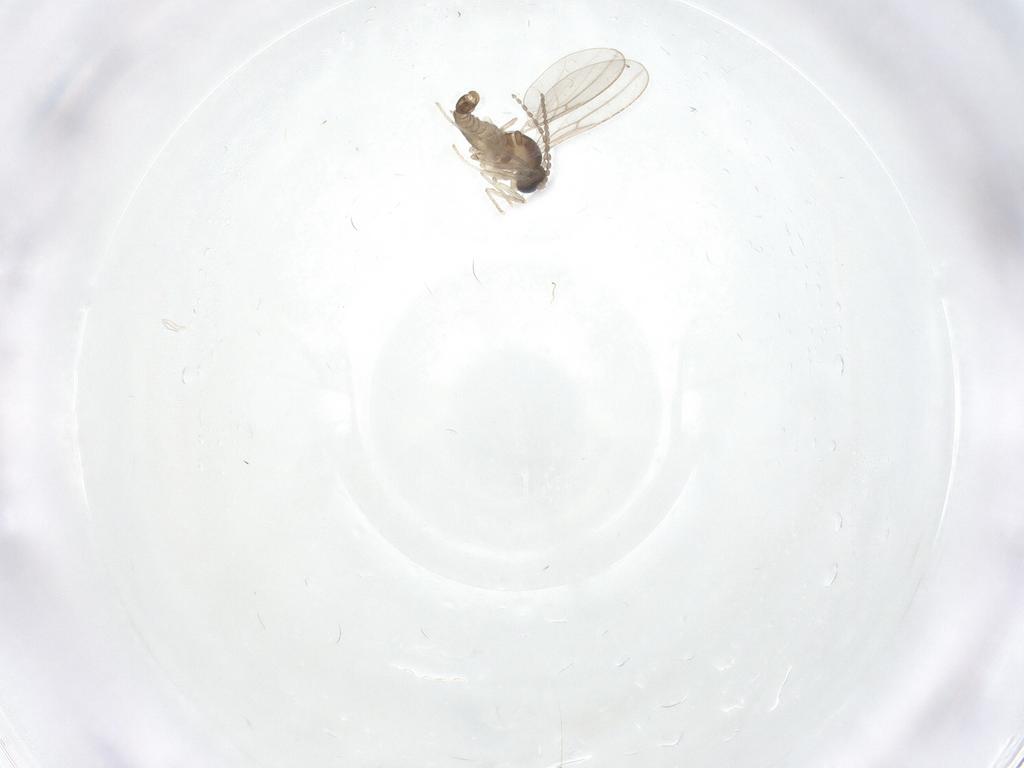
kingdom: Animalia
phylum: Arthropoda
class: Insecta
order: Diptera
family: Cecidomyiidae
